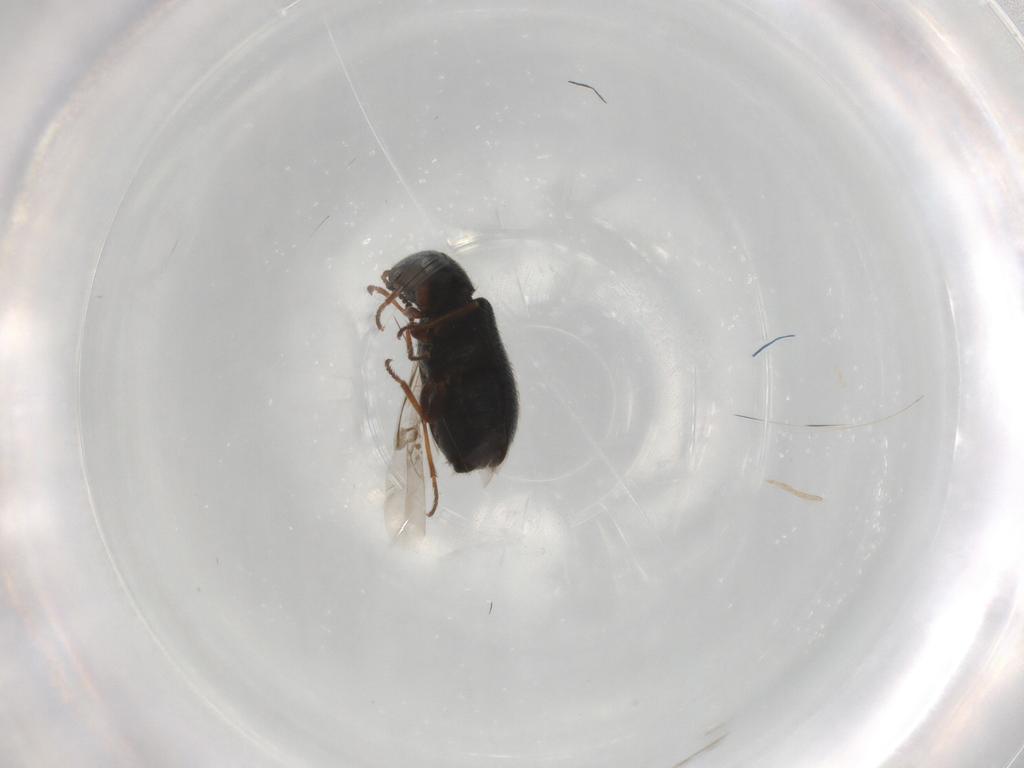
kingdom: Animalia
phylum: Arthropoda
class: Insecta
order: Coleoptera
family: Melyridae
